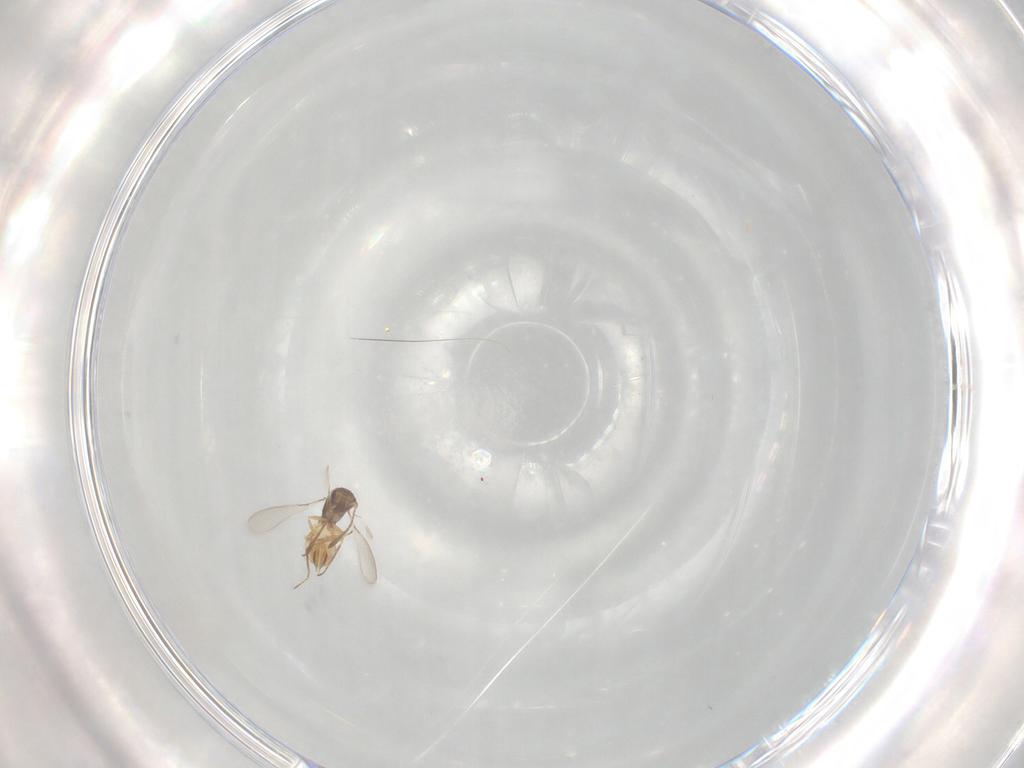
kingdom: Animalia
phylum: Arthropoda
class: Insecta
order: Hymenoptera
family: Mymaridae
